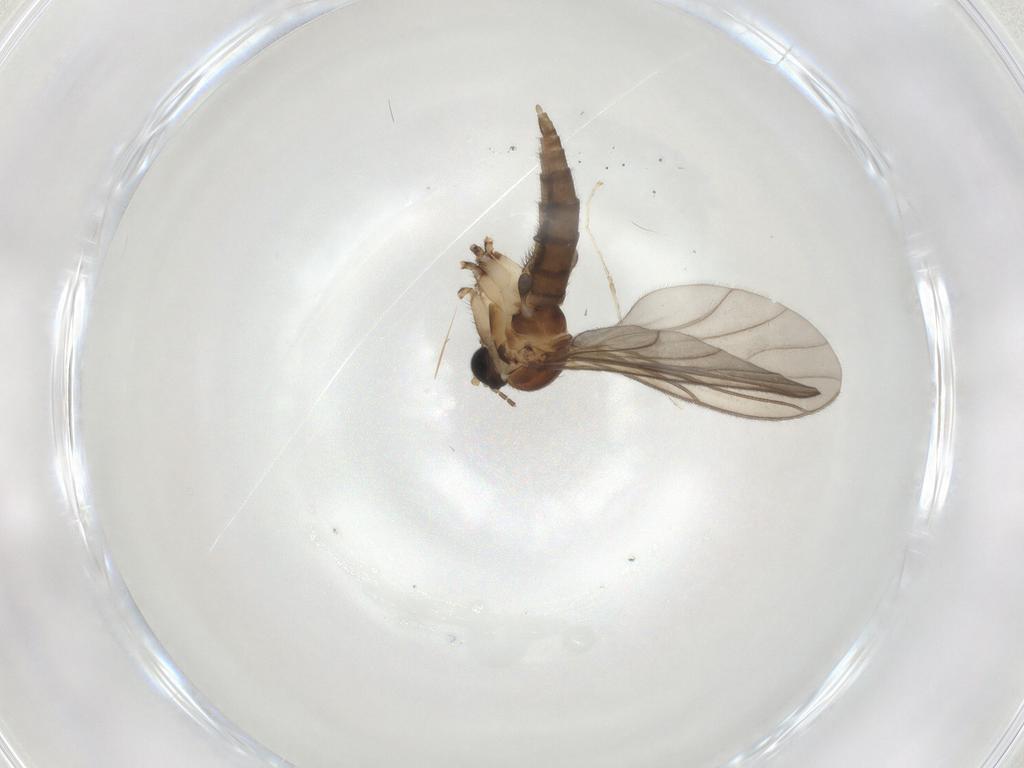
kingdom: Animalia
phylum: Arthropoda
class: Insecta
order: Diptera
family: Sciaridae
